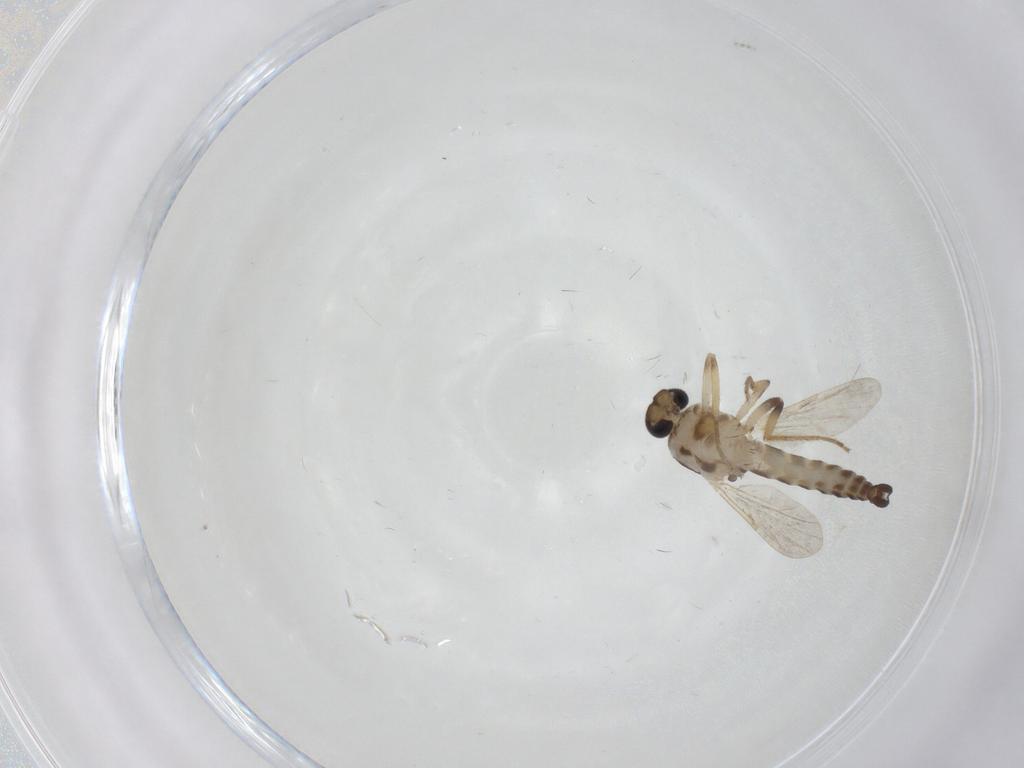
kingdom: Animalia
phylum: Arthropoda
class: Insecta
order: Diptera
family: Ceratopogonidae
